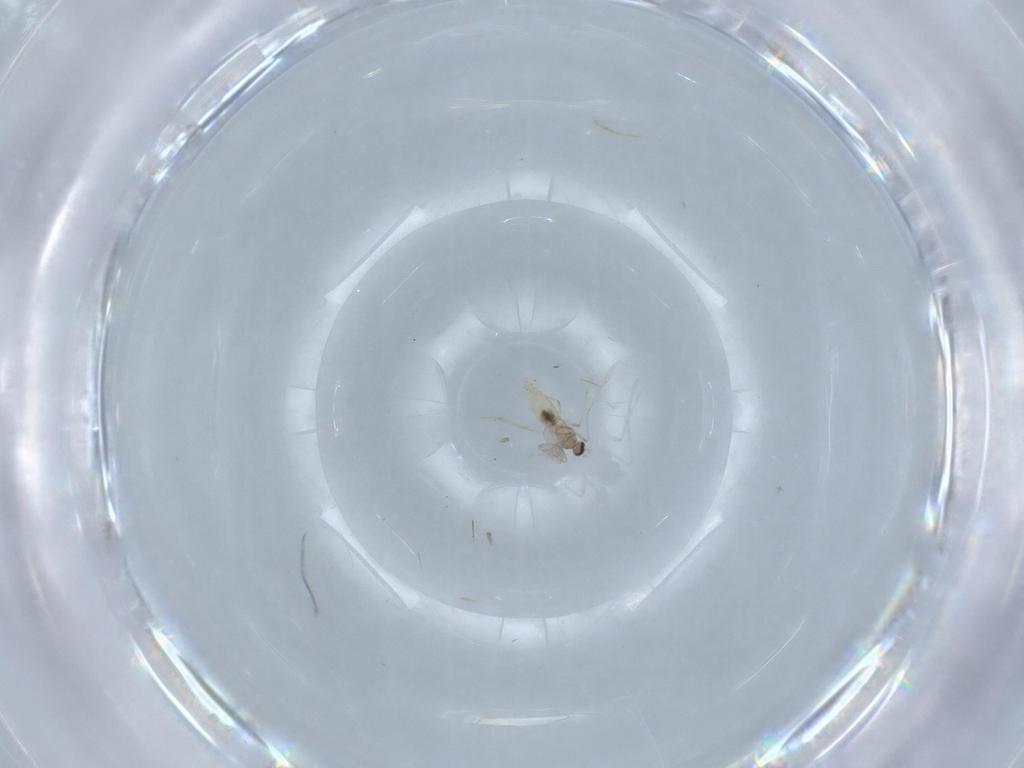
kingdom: Animalia
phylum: Arthropoda
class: Insecta
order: Diptera
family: Cecidomyiidae
